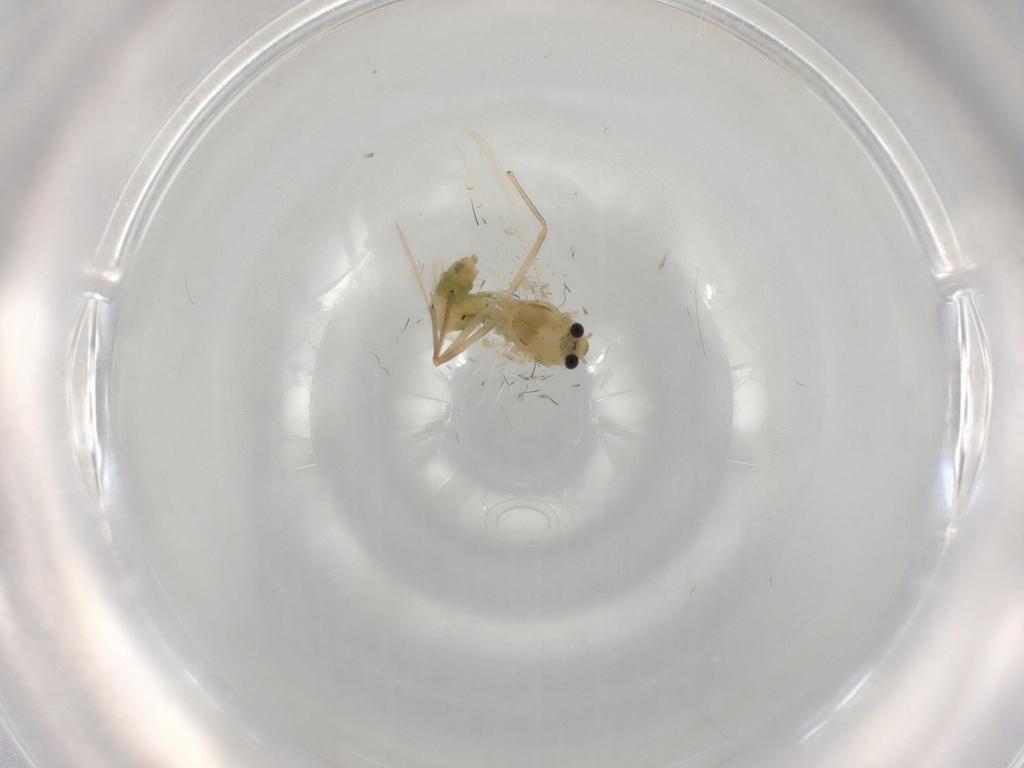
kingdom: Animalia
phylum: Arthropoda
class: Insecta
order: Diptera
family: Chironomidae
